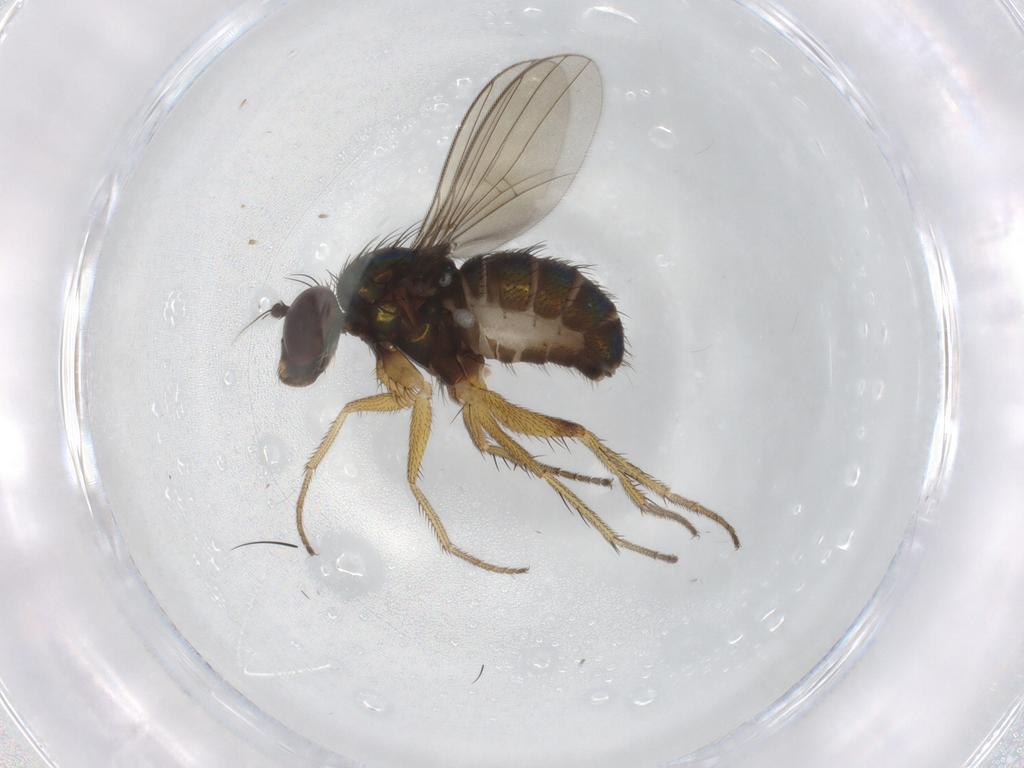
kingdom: Animalia
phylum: Arthropoda
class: Insecta
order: Diptera
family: Dolichopodidae
